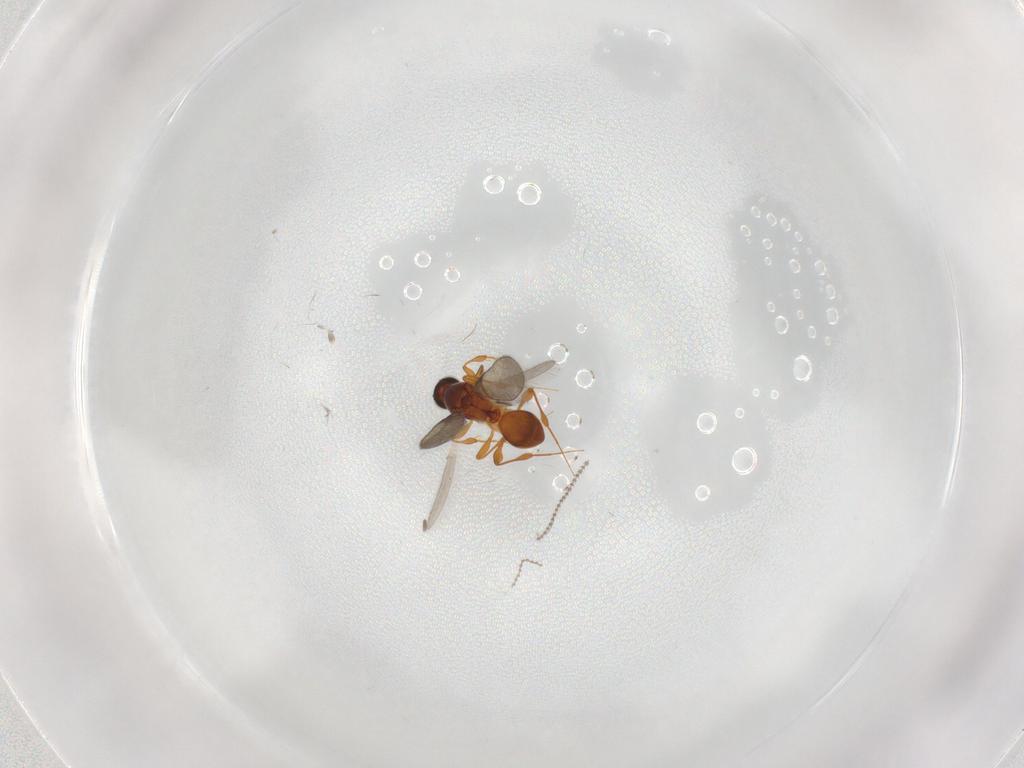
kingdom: Animalia
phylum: Arthropoda
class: Insecta
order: Hymenoptera
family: Platygastridae
